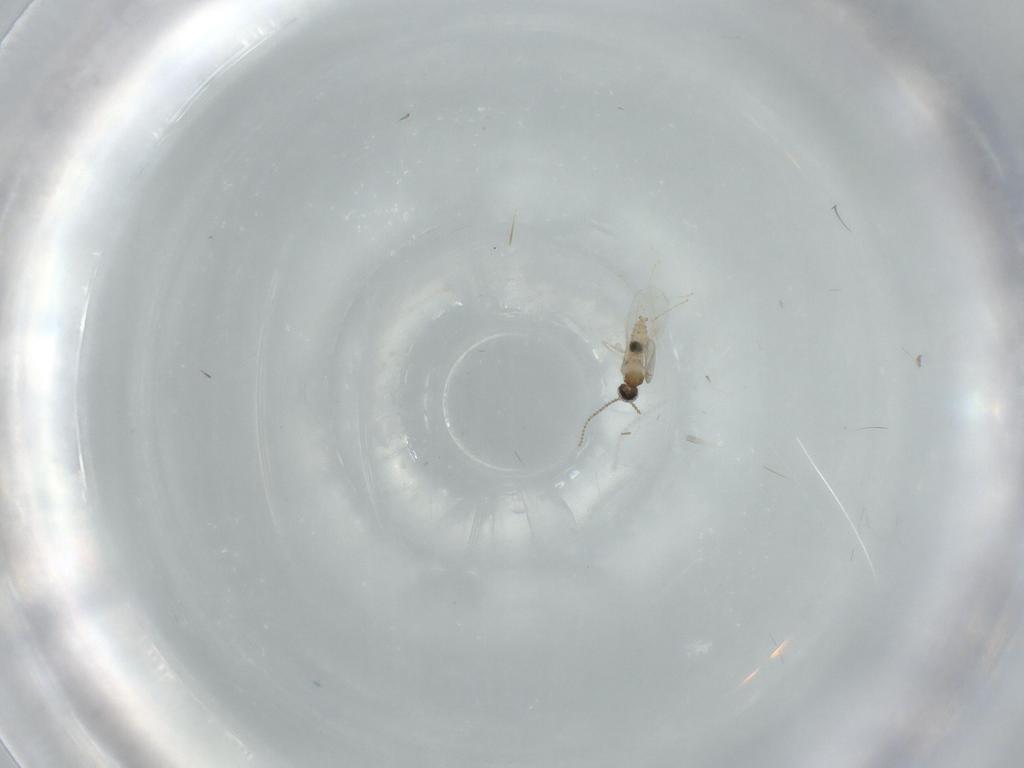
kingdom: Animalia
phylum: Arthropoda
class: Insecta
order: Diptera
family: Cecidomyiidae
